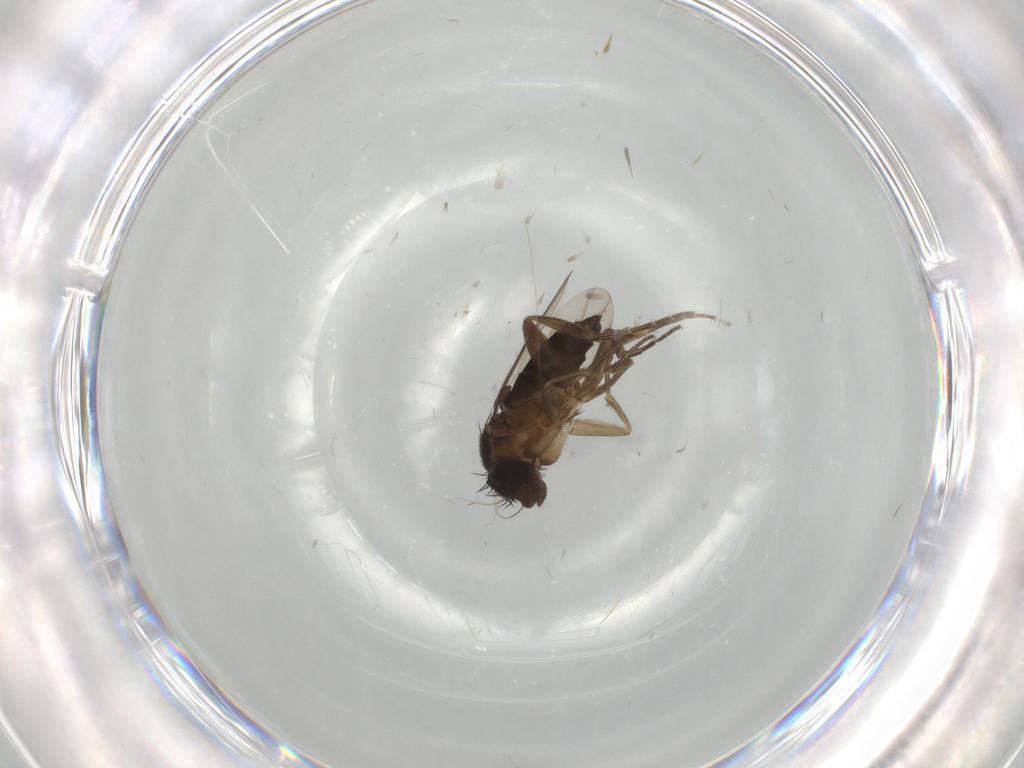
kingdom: Animalia
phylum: Arthropoda
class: Insecta
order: Diptera
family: Phoridae
